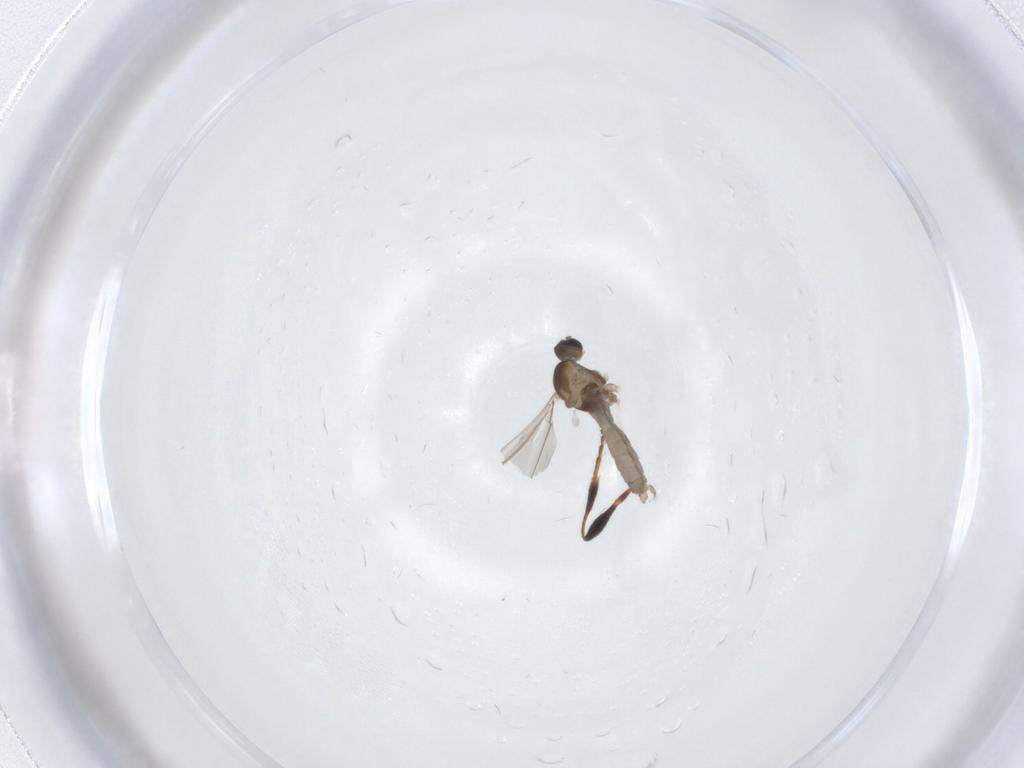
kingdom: Animalia
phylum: Arthropoda
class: Insecta
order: Diptera
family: Cecidomyiidae
